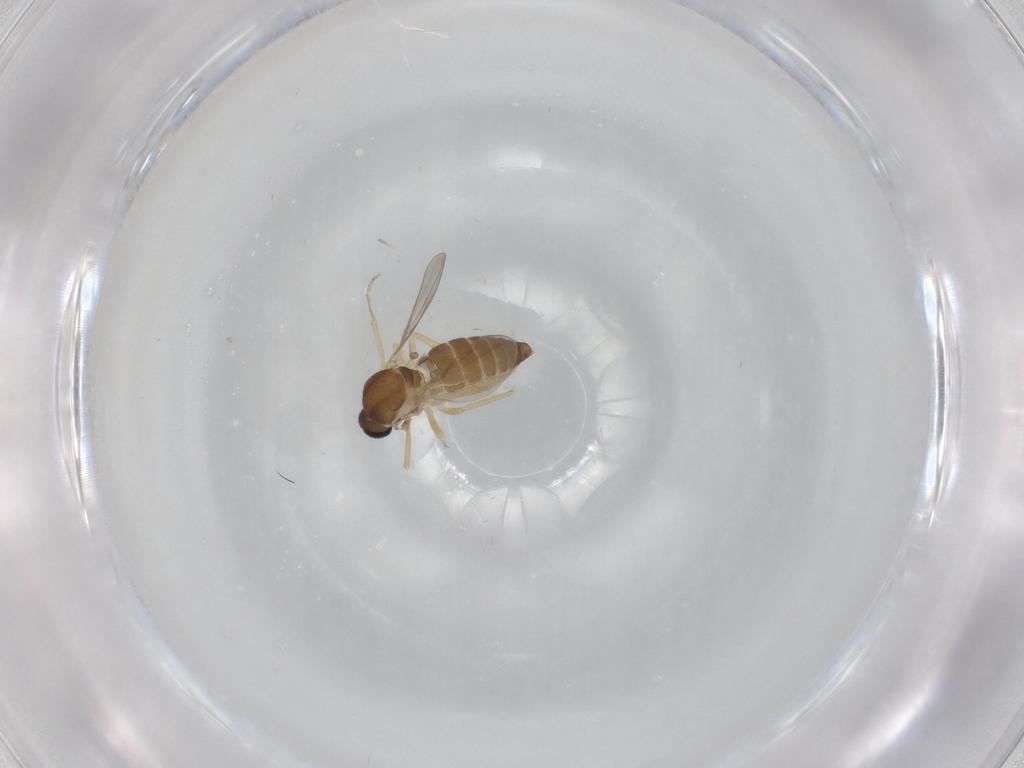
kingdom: Animalia
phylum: Arthropoda
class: Insecta
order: Diptera
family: Ceratopogonidae
